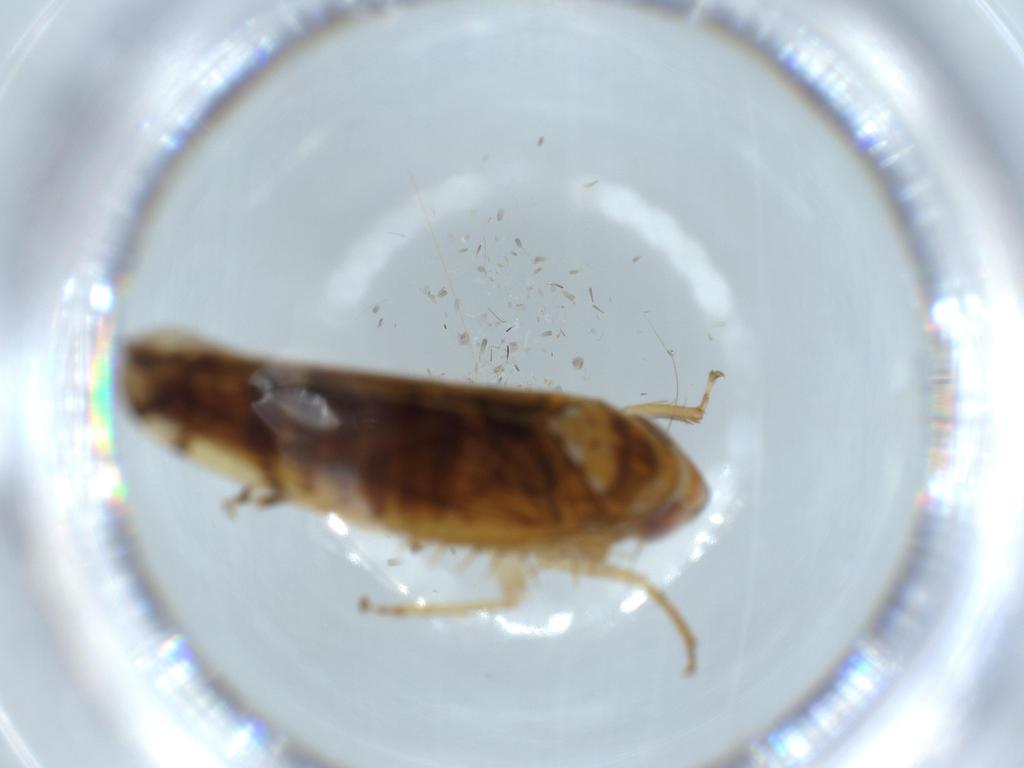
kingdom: Animalia
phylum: Arthropoda
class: Insecta
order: Hemiptera
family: Cicadellidae
